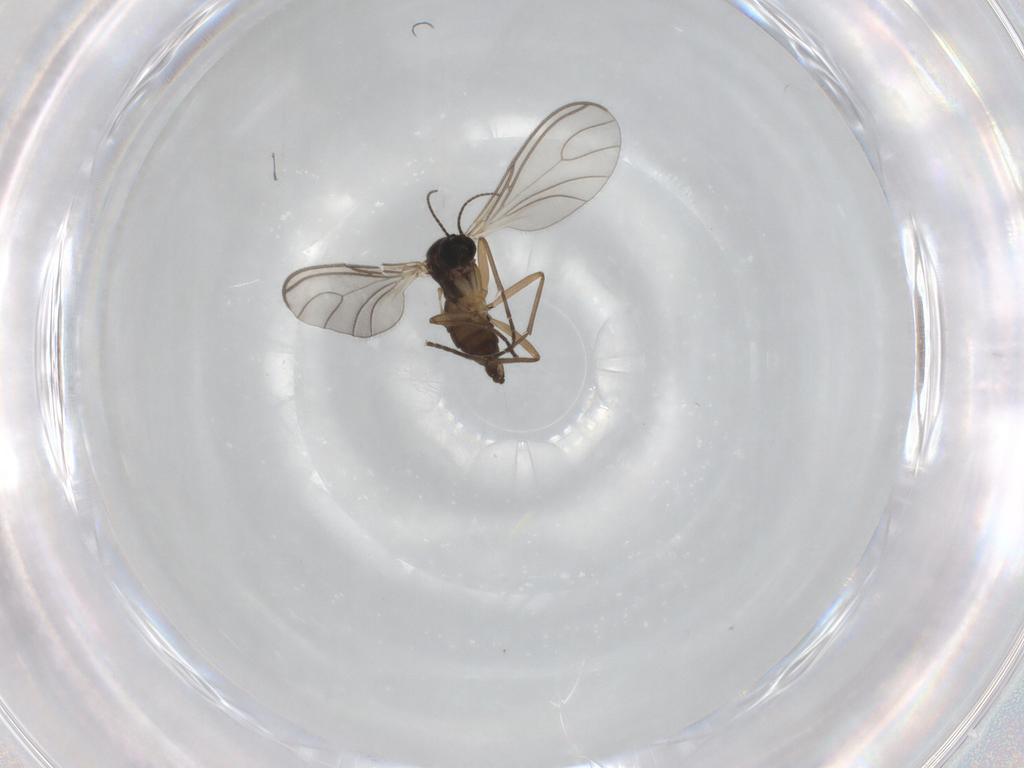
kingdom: Animalia
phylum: Arthropoda
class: Insecta
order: Diptera
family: Sciaridae
